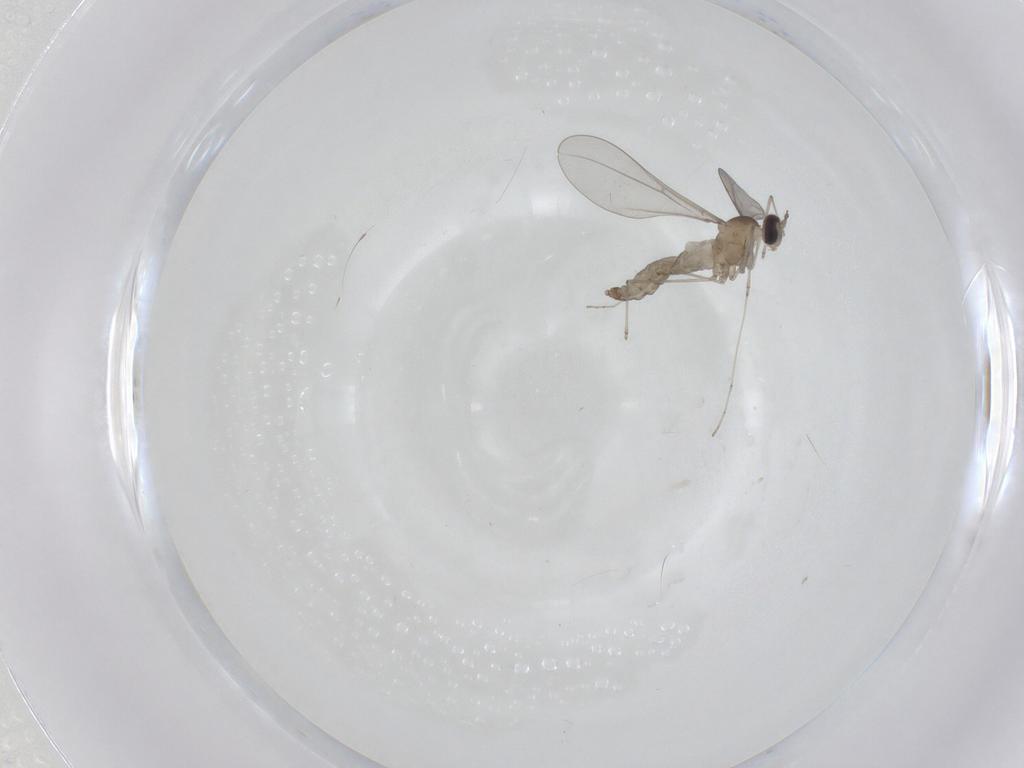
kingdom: Animalia
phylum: Arthropoda
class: Insecta
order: Diptera
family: Cecidomyiidae
